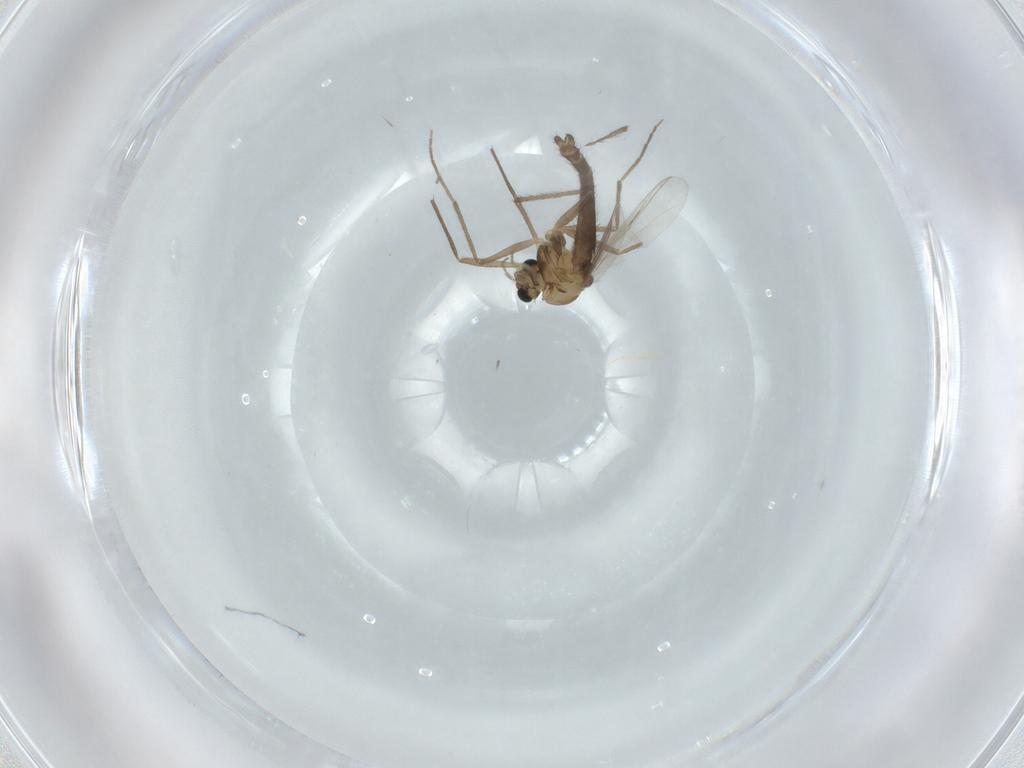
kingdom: Animalia
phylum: Arthropoda
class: Insecta
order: Diptera
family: Chironomidae
